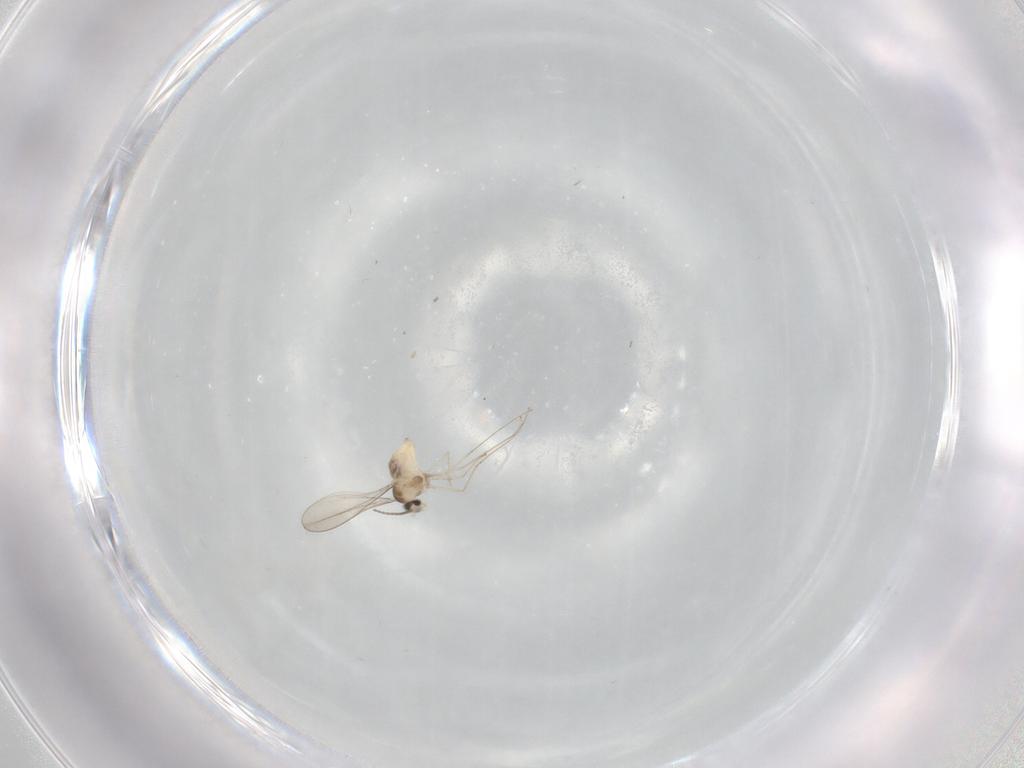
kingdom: Animalia
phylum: Arthropoda
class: Insecta
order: Diptera
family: Cecidomyiidae
